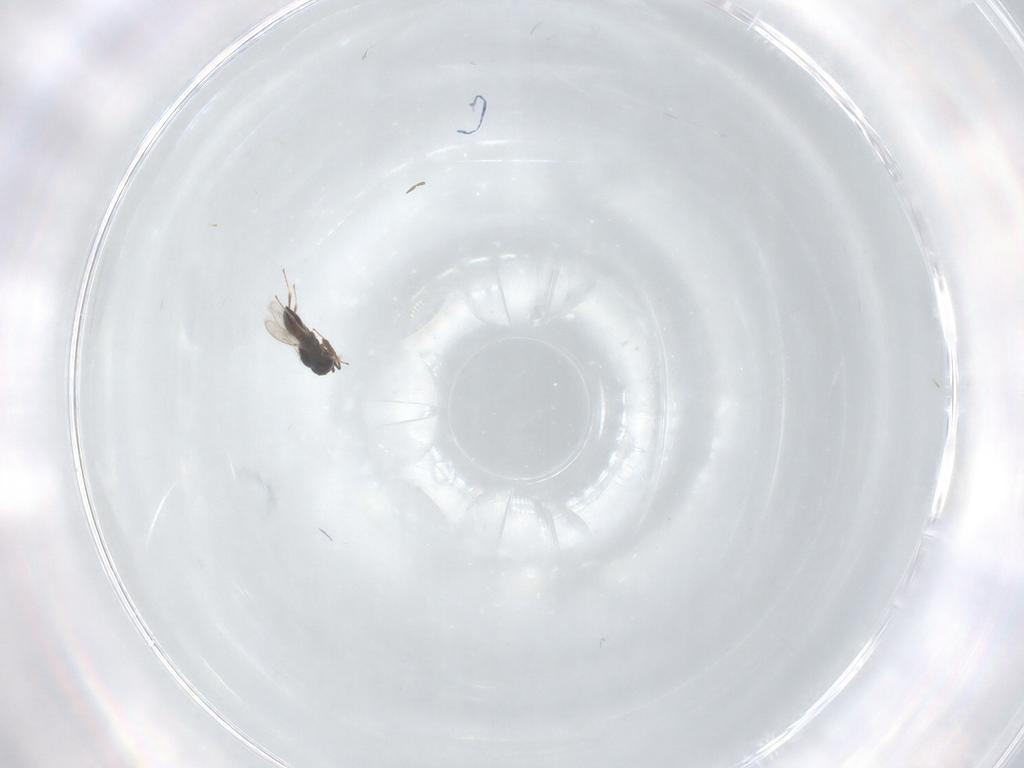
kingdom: Animalia
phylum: Arthropoda
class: Insecta
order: Hymenoptera
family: Scelionidae
